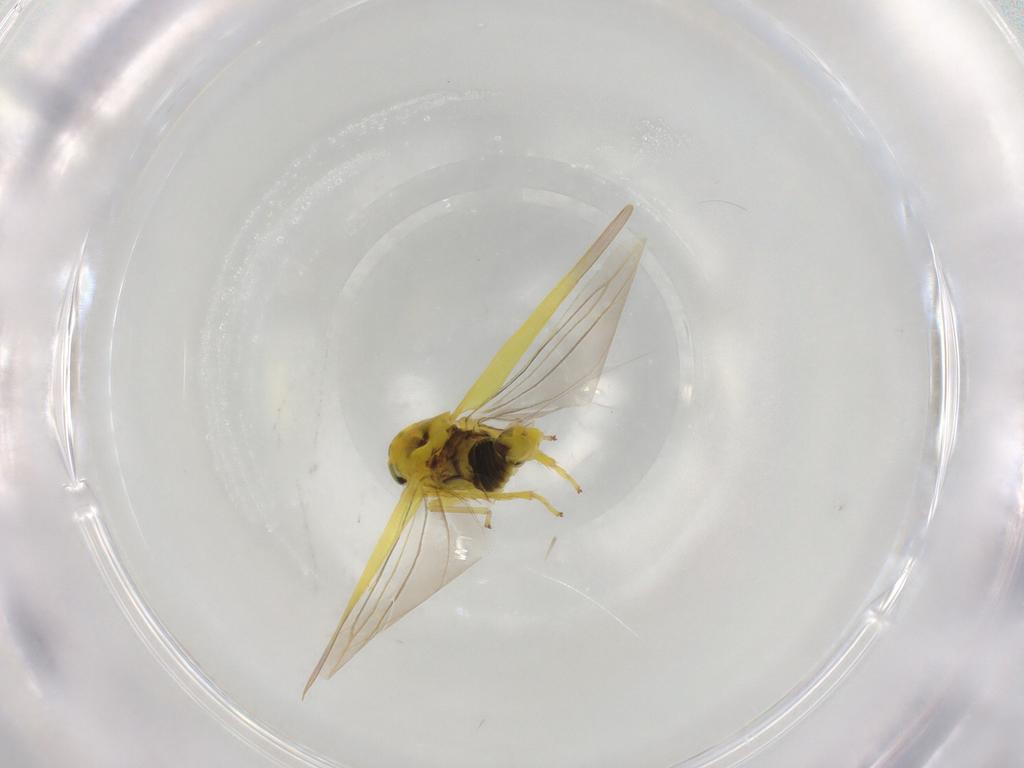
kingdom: Animalia
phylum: Arthropoda
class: Insecta
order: Hemiptera
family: Cicadellidae
